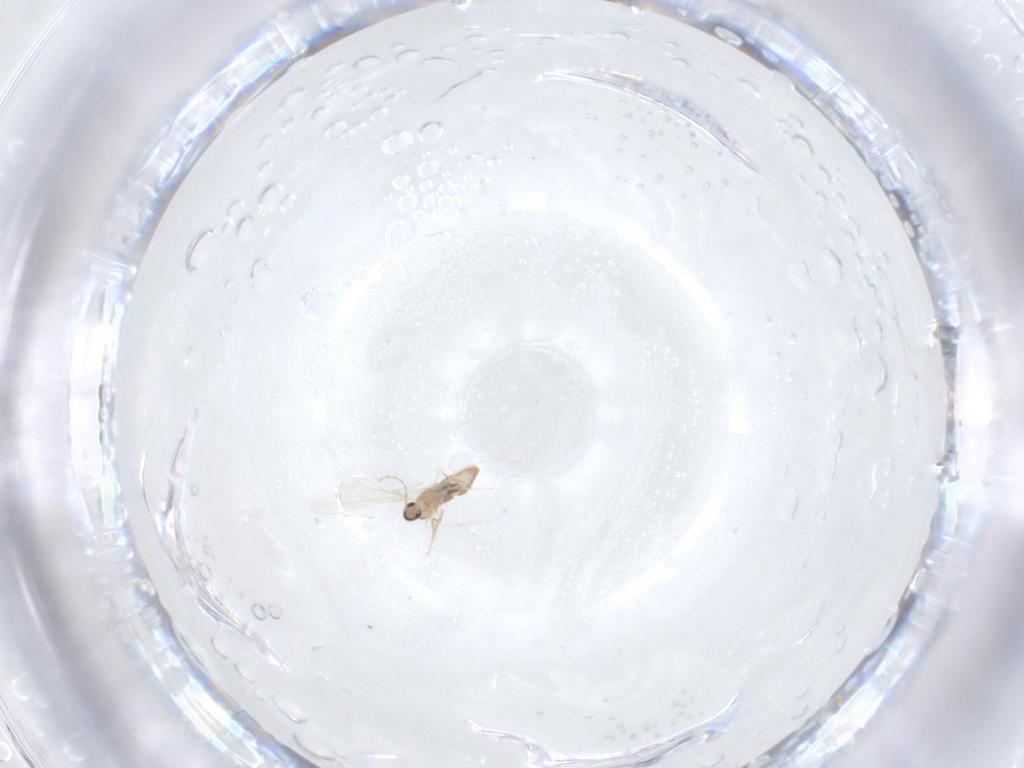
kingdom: Animalia
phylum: Arthropoda
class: Insecta
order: Diptera
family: Cecidomyiidae
